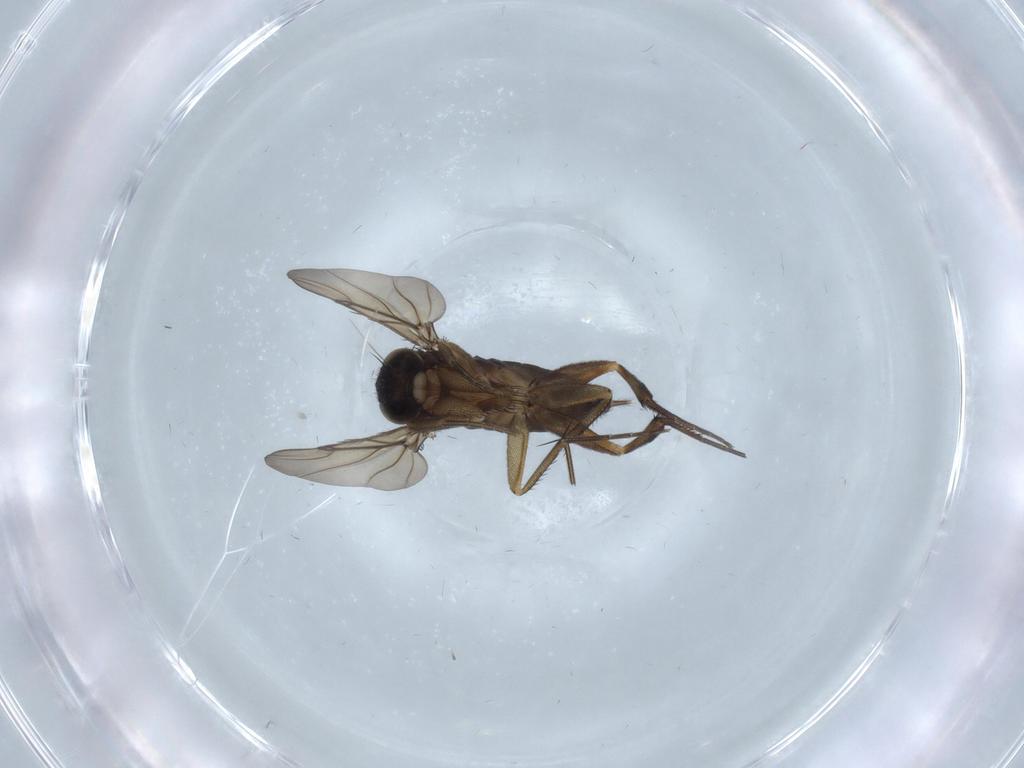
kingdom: Animalia
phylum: Arthropoda
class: Insecta
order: Diptera
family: Phoridae
